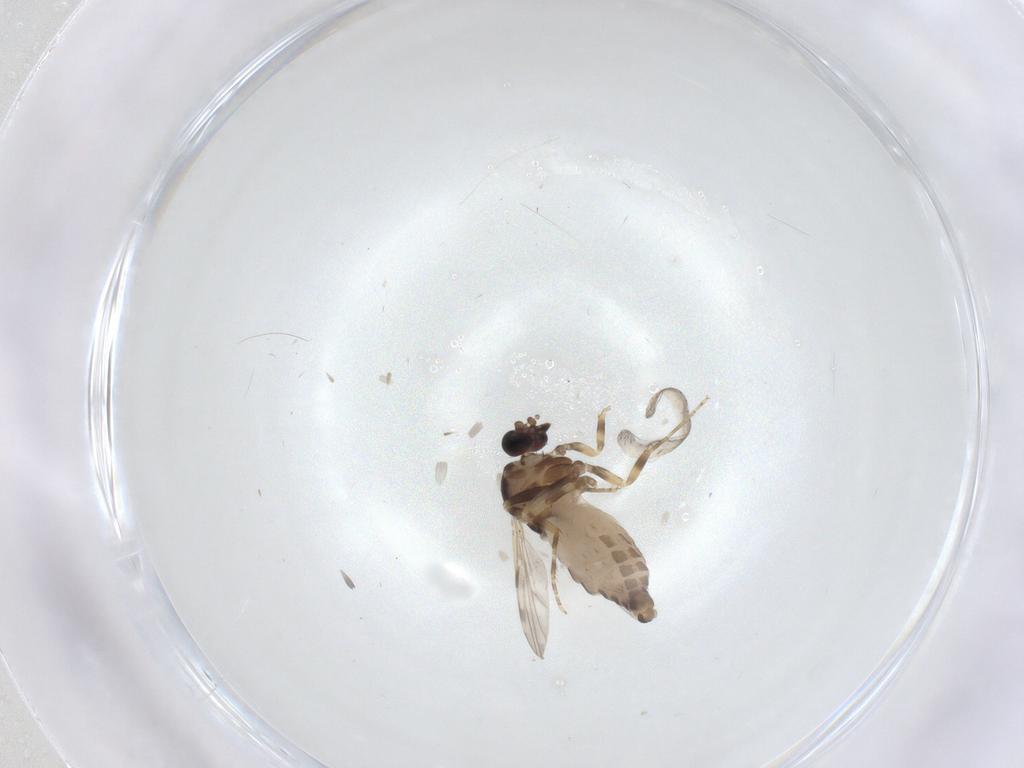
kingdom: Animalia
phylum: Arthropoda
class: Insecta
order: Diptera
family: Ceratopogonidae
